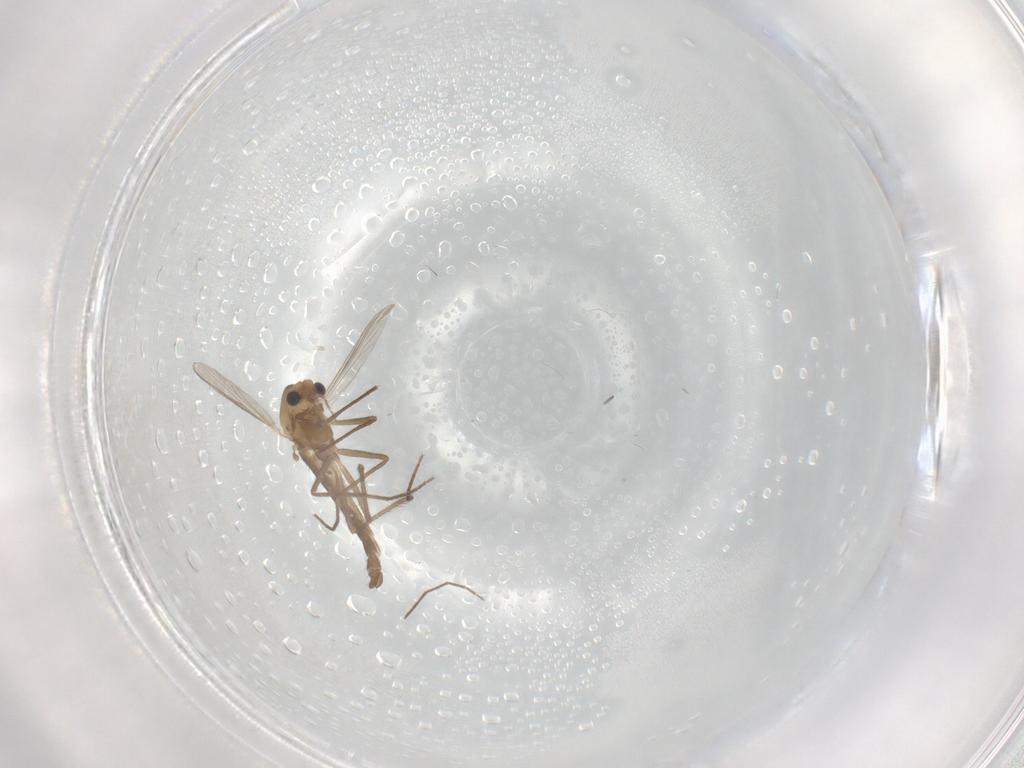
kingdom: Animalia
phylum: Arthropoda
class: Insecta
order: Diptera
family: Chironomidae
